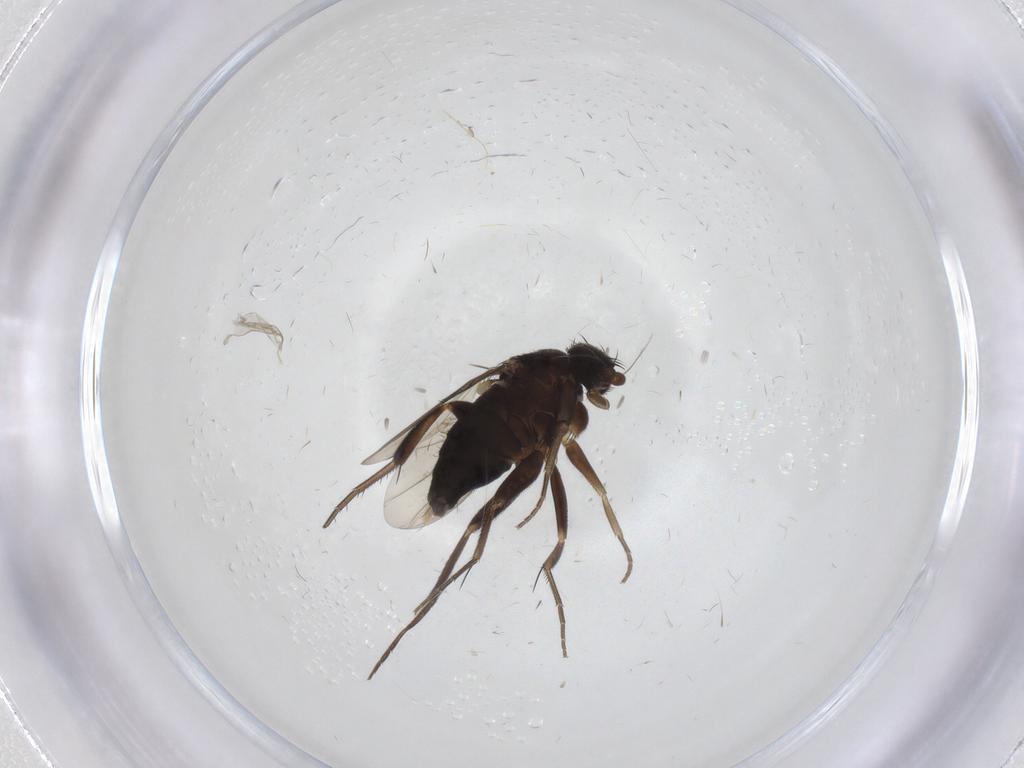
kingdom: Animalia
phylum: Arthropoda
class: Insecta
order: Diptera
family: Phoridae
